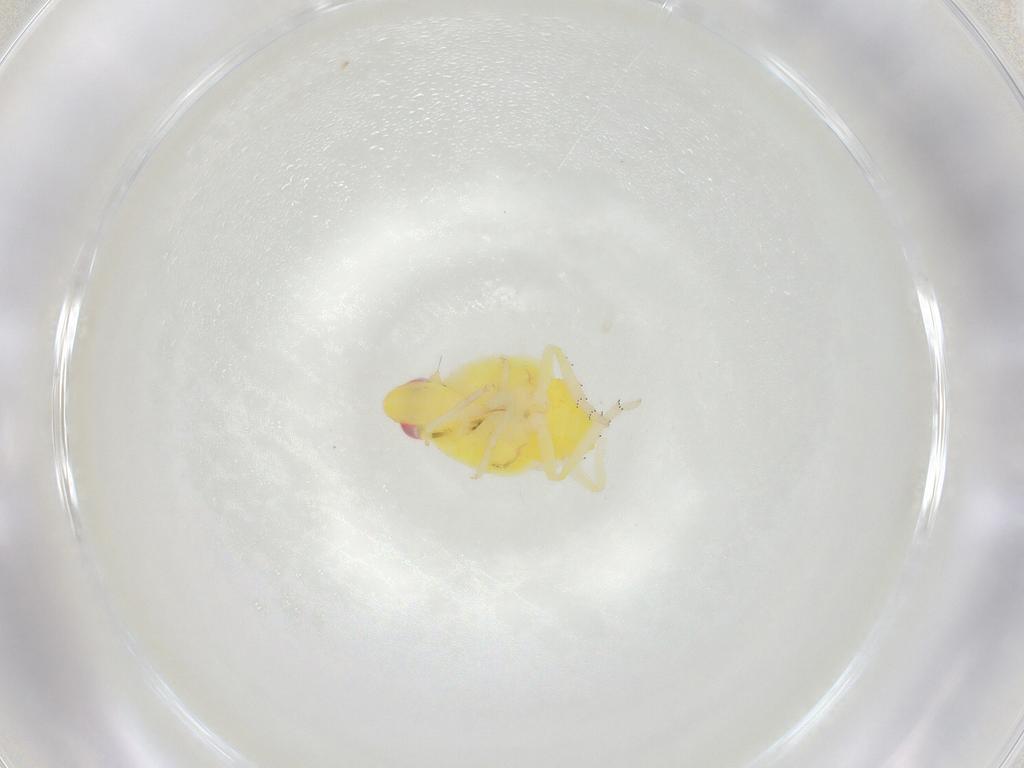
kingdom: Animalia
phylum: Arthropoda
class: Insecta
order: Hemiptera
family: Tropiduchidae
